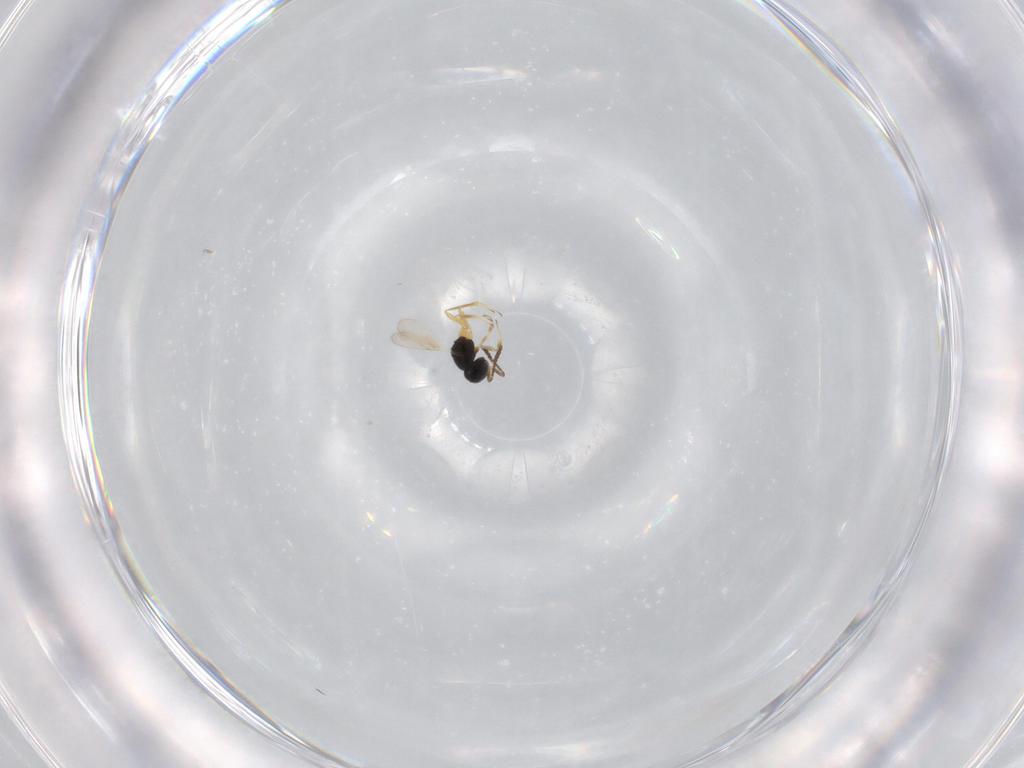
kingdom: Animalia
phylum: Arthropoda
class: Insecta
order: Hymenoptera
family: Scelionidae
